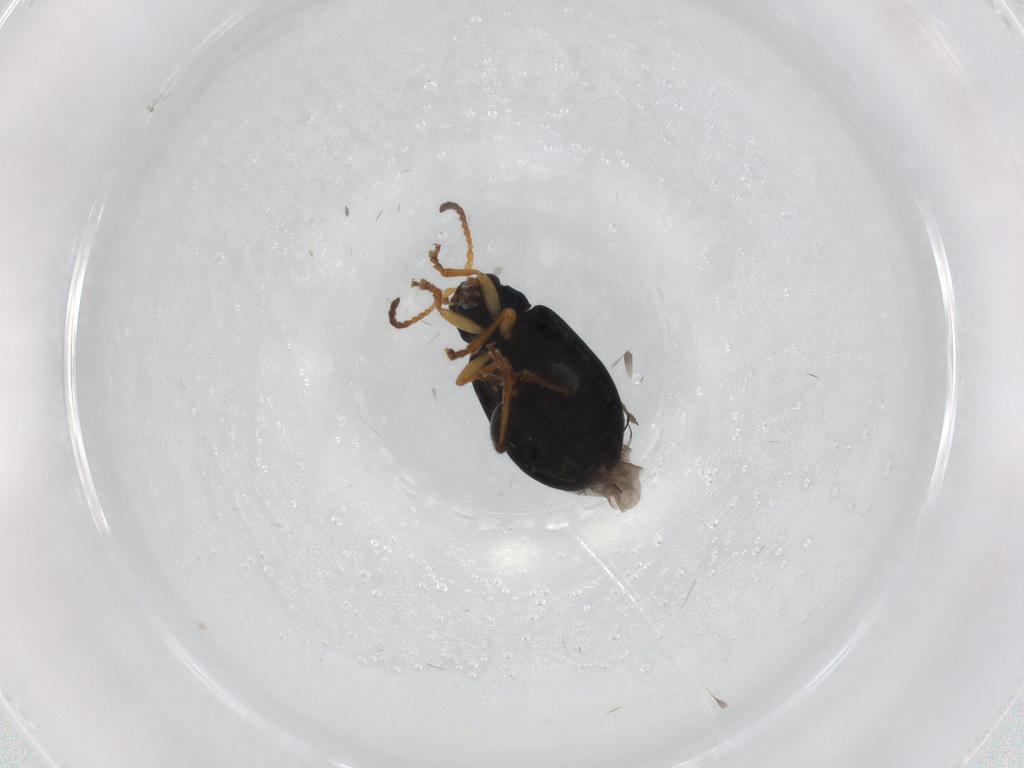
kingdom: Animalia
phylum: Arthropoda
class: Insecta
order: Coleoptera
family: Chrysomelidae
